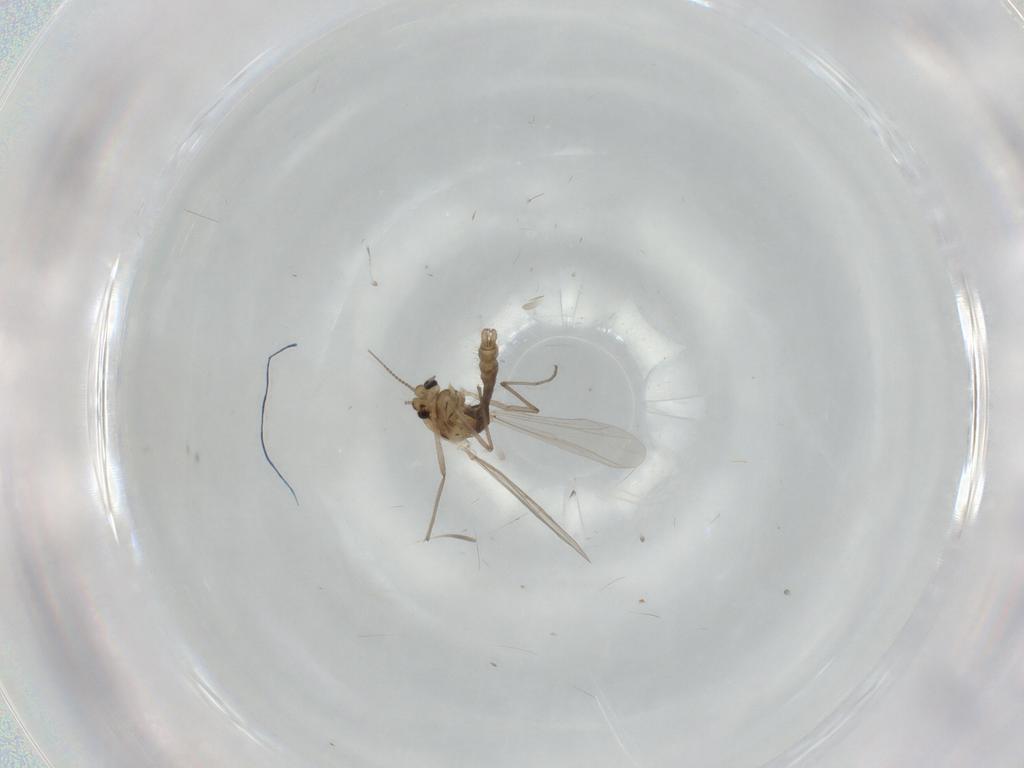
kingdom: Animalia
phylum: Arthropoda
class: Insecta
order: Diptera
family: Chironomidae
